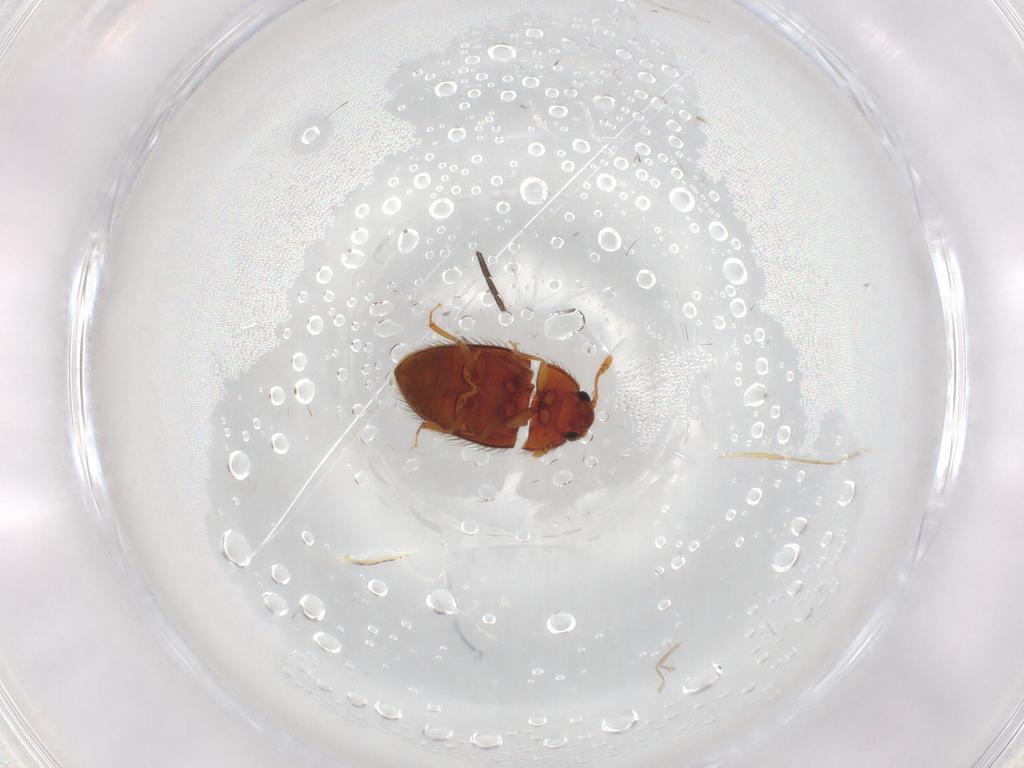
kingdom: Animalia
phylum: Arthropoda
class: Insecta
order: Coleoptera
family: Biphyllidae
